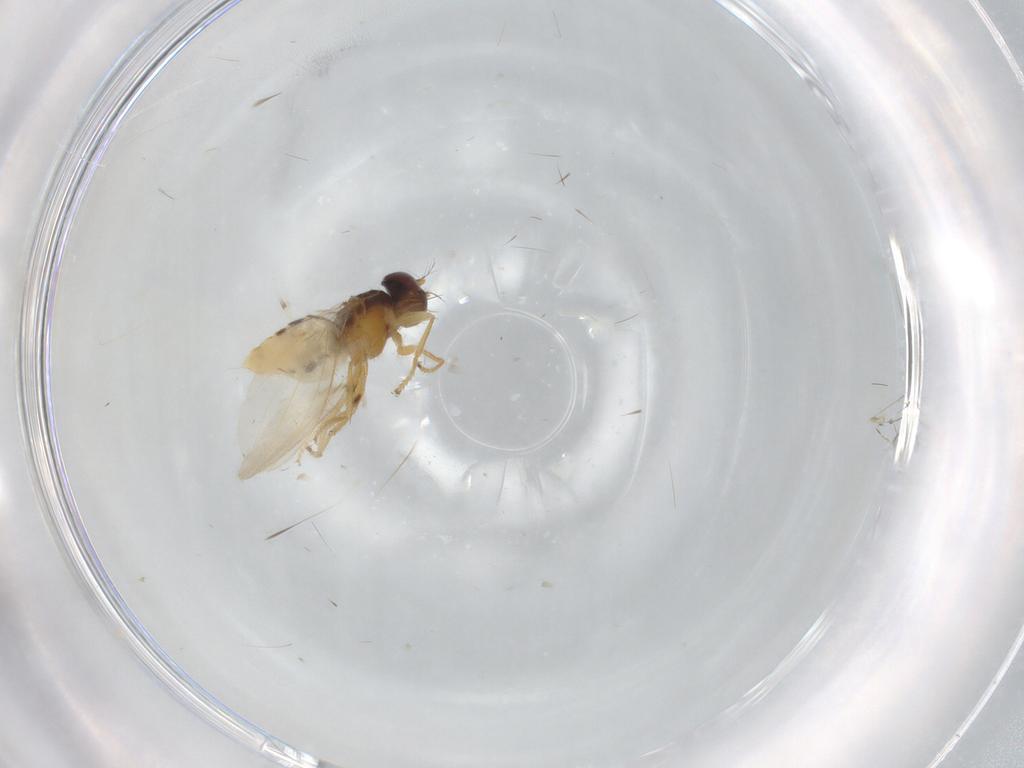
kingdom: Animalia
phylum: Arthropoda
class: Insecta
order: Diptera
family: Periscelididae
